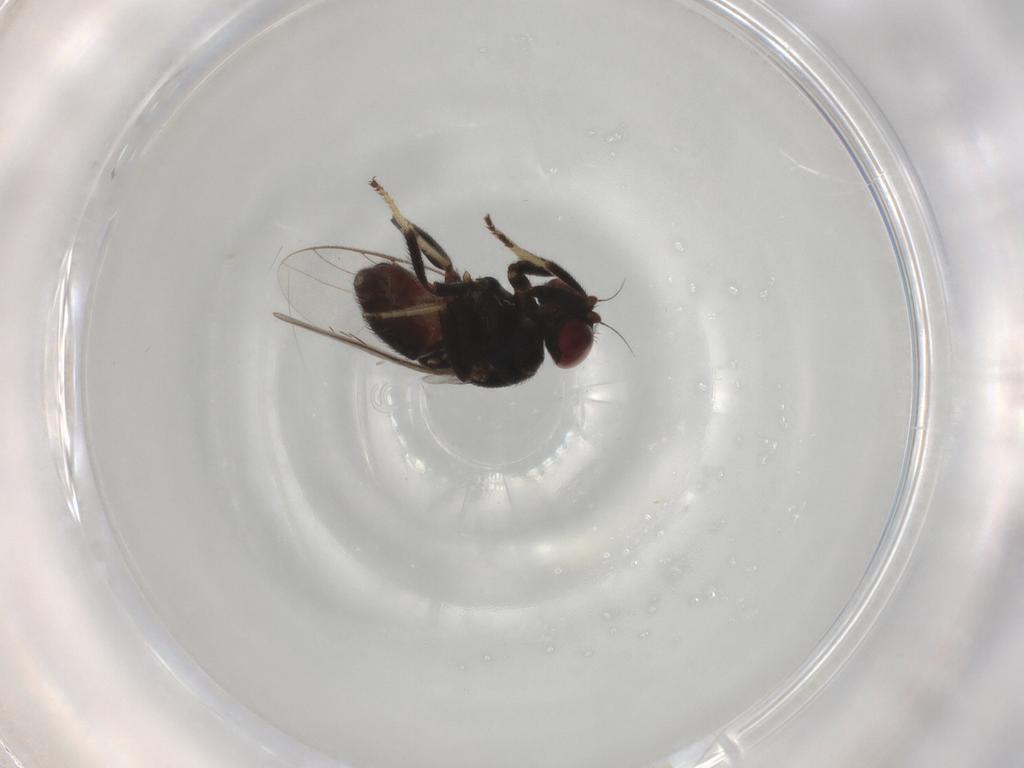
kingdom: Animalia
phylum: Arthropoda
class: Insecta
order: Diptera
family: Chloropidae
